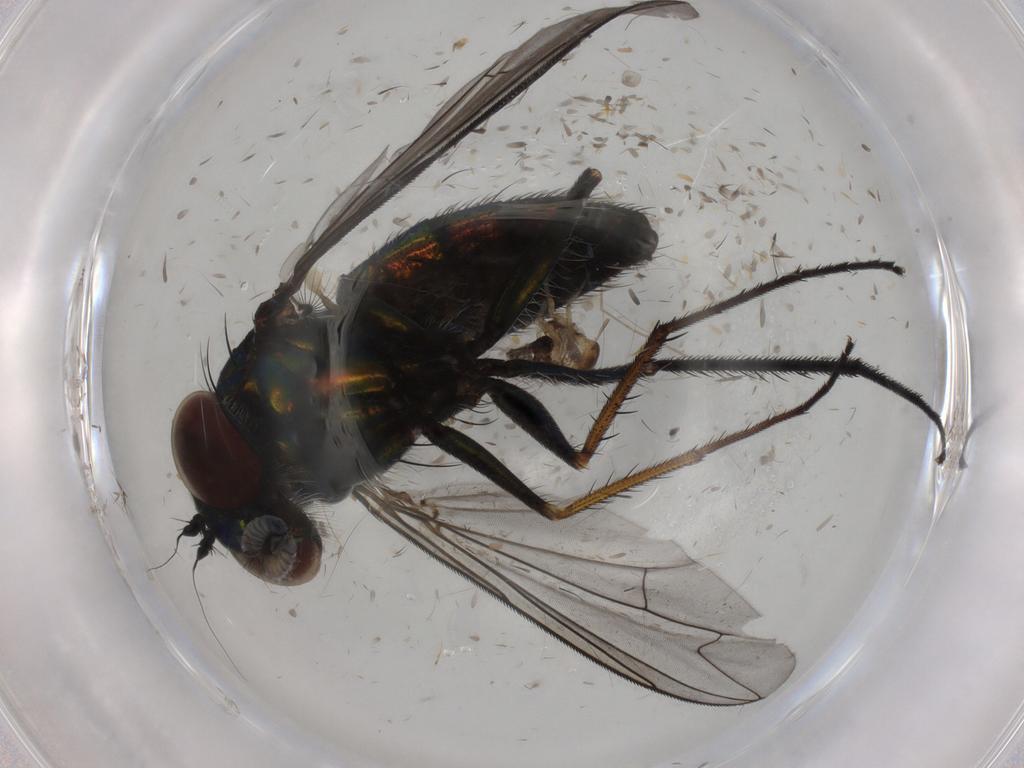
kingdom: Animalia
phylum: Arthropoda
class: Insecta
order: Diptera
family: Dolichopodidae
